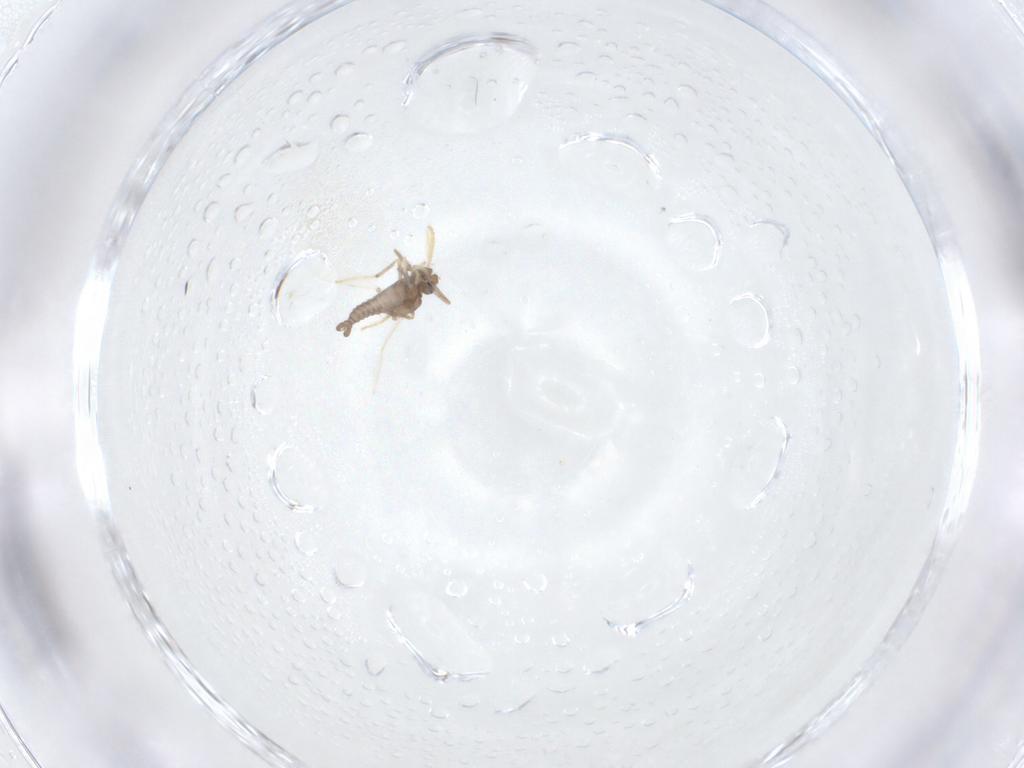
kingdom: Animalia
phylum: Arthropoda
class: Insecta
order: Diptera
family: Ceratopogonidae
